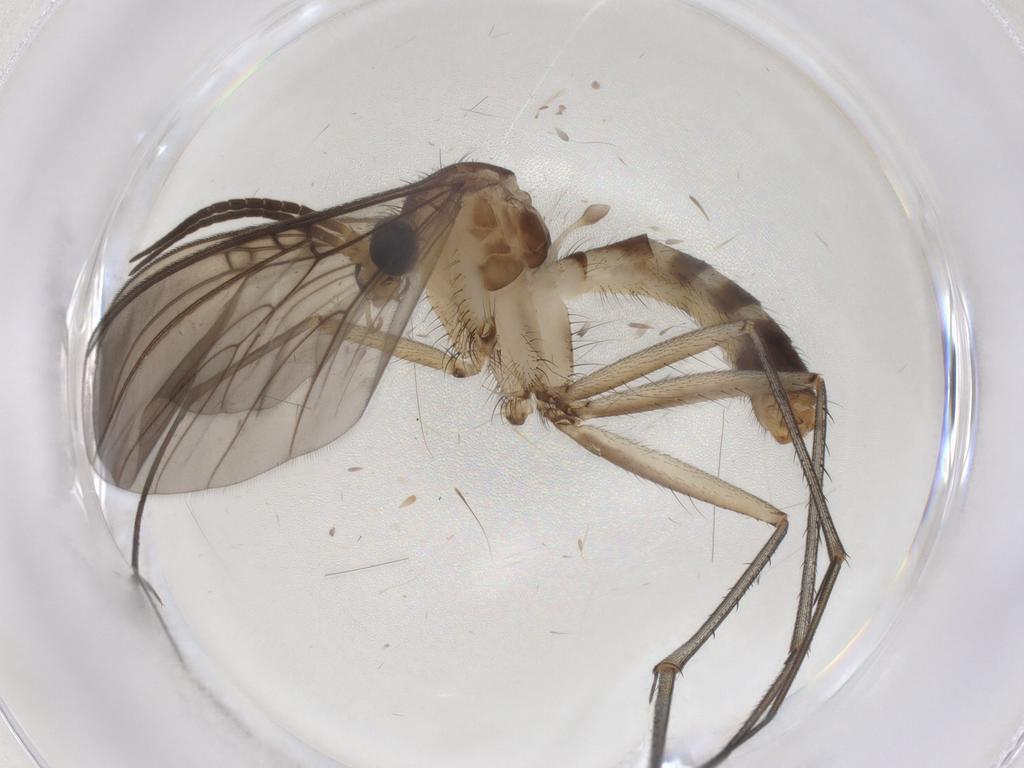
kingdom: Animalia
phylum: Arthropoda
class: Insecta
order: Diptera
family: Mycetophilidae
